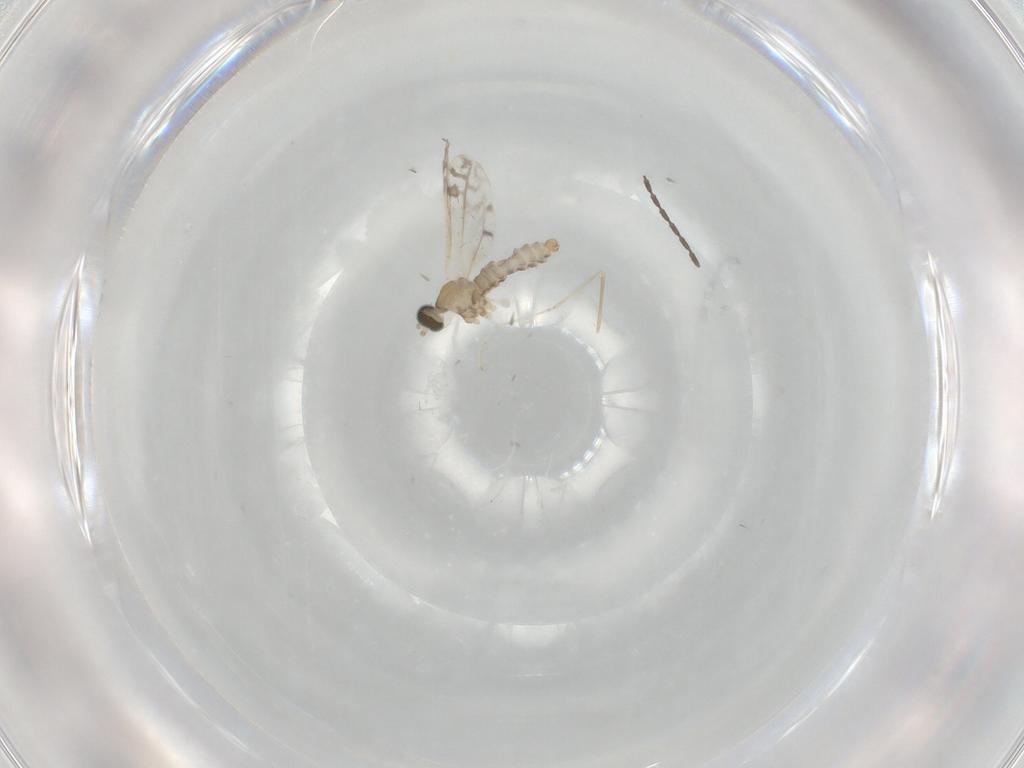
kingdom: Animalia
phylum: Arthropoda
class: Insecta
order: Diptera
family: Cecidomyiidae
